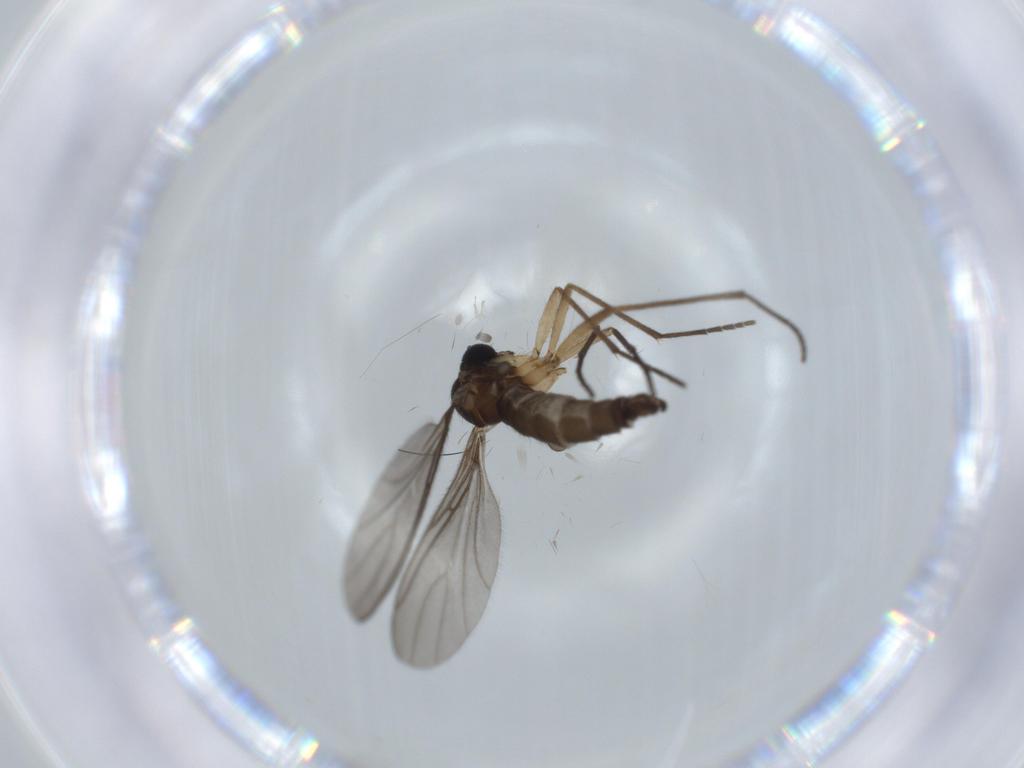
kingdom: Animalia
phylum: Arthropoda
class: Insecta
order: Diptera
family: Sciaridae
